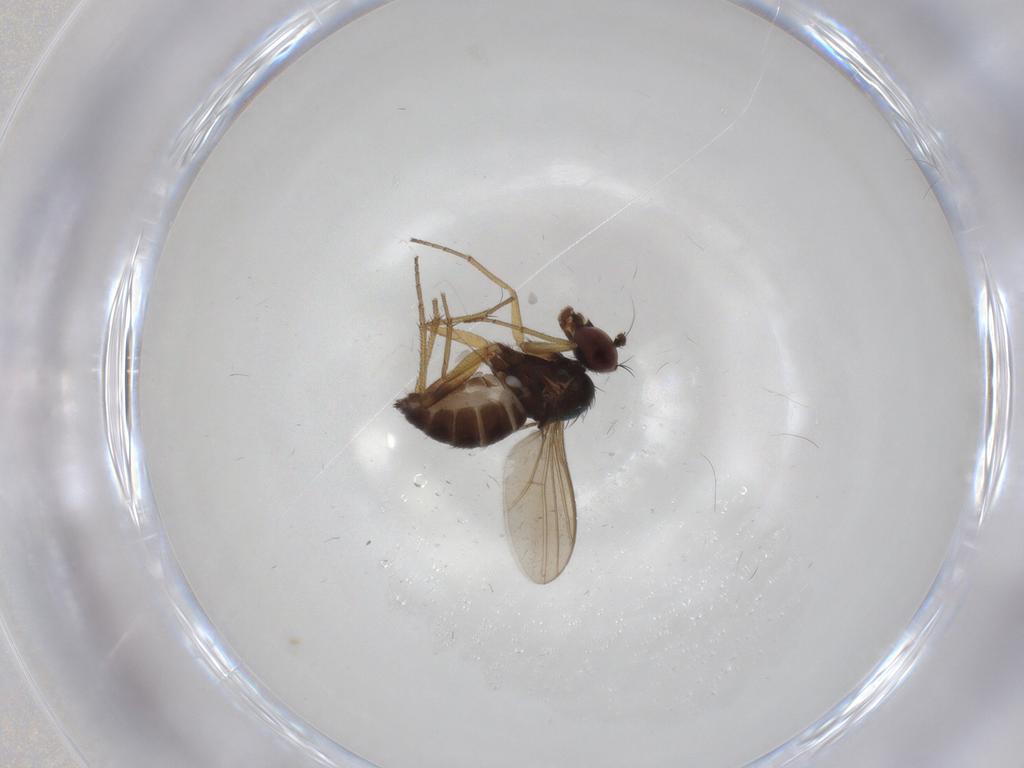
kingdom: Animalia
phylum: Arthropoda
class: Insecta
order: Diptera
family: Dolichopodidae
